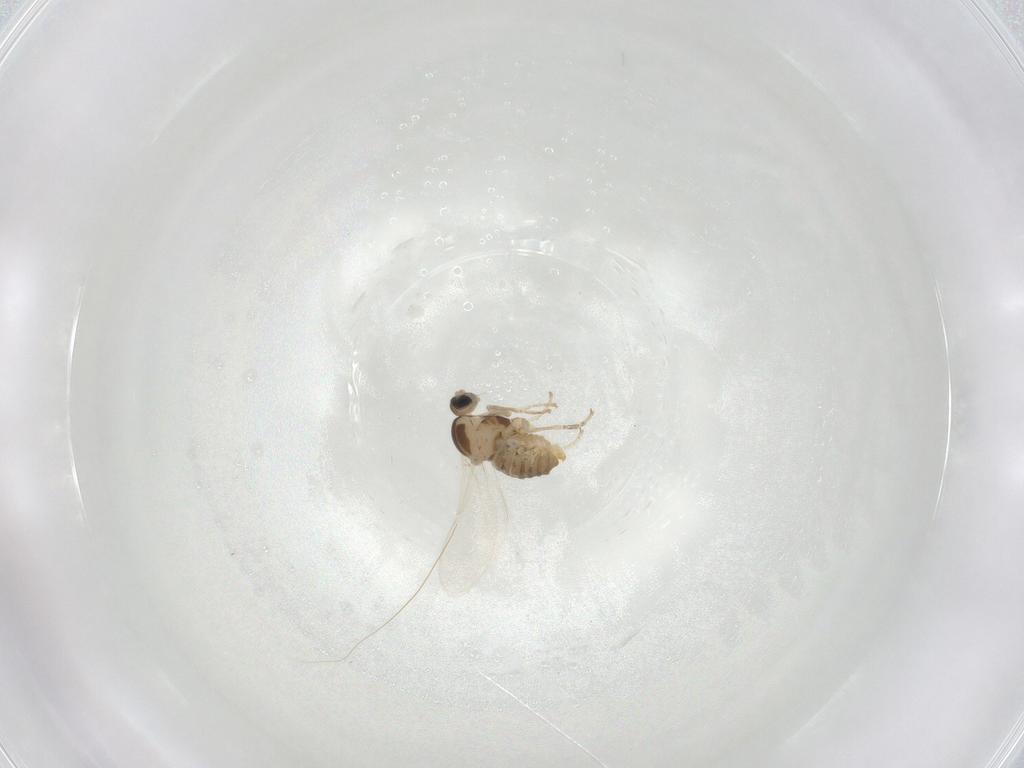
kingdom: Animalia
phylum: Arthropoda
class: Insecta
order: Diptera
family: Cecidomyiidae
